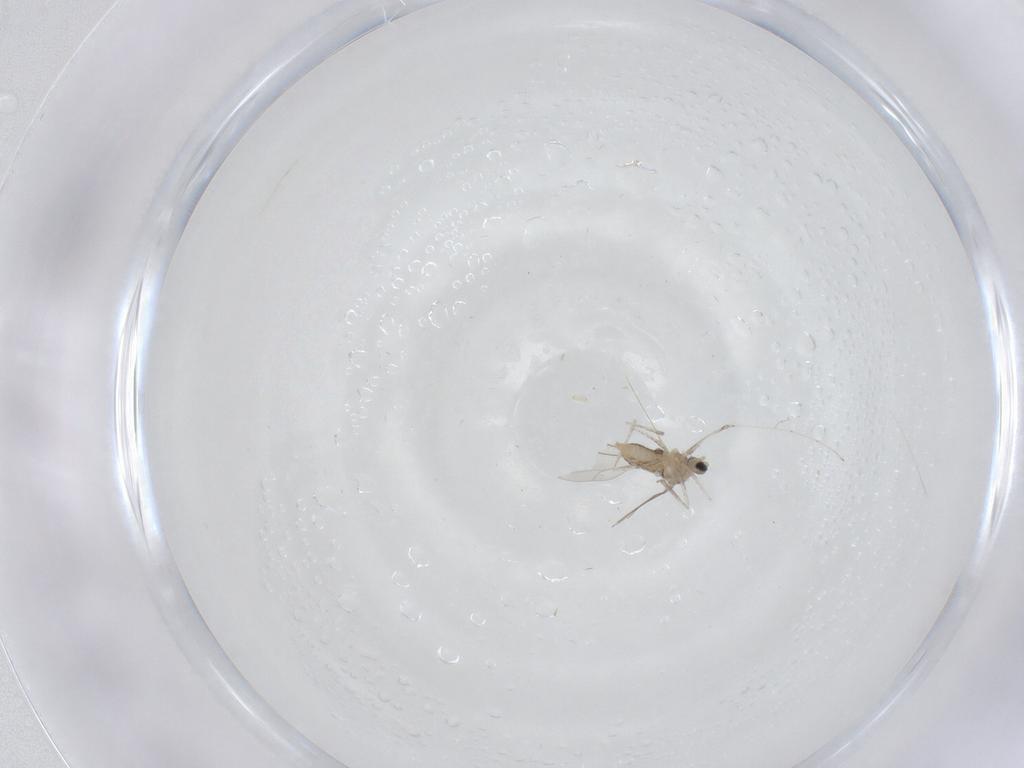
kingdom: Animalia
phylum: Arthropoda
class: Insecta
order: Diptera
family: Cecidomyiidae
